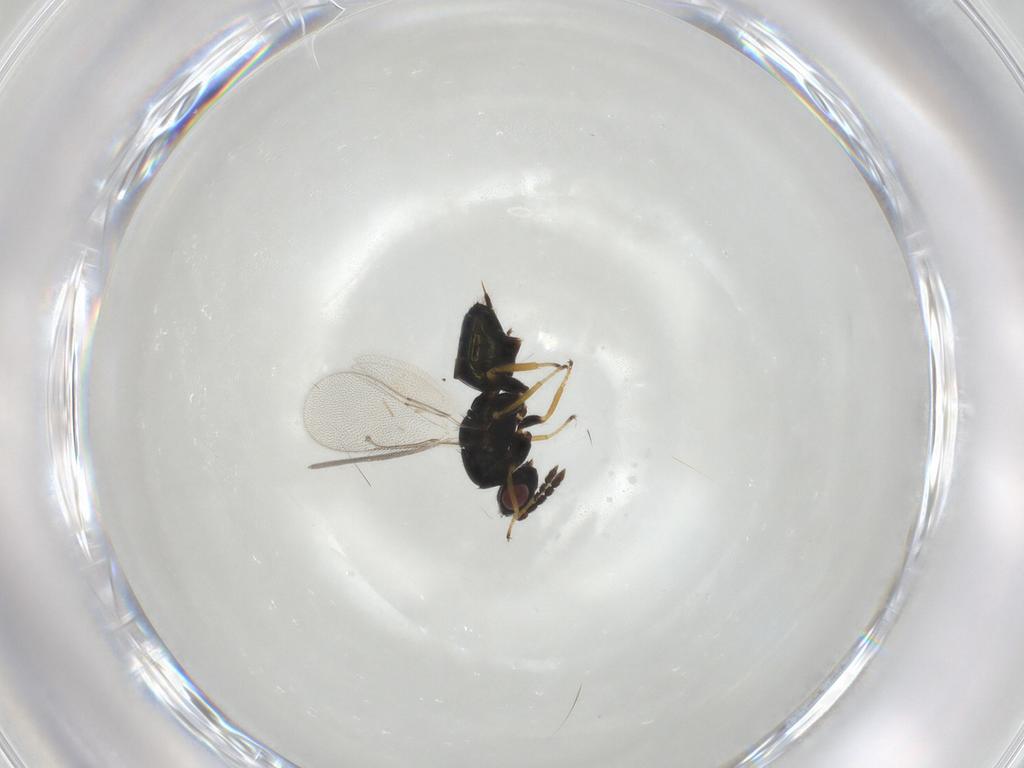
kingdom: Animalia
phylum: Arthropoda
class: Insecta
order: Hymenoptera
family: Eulophidae
